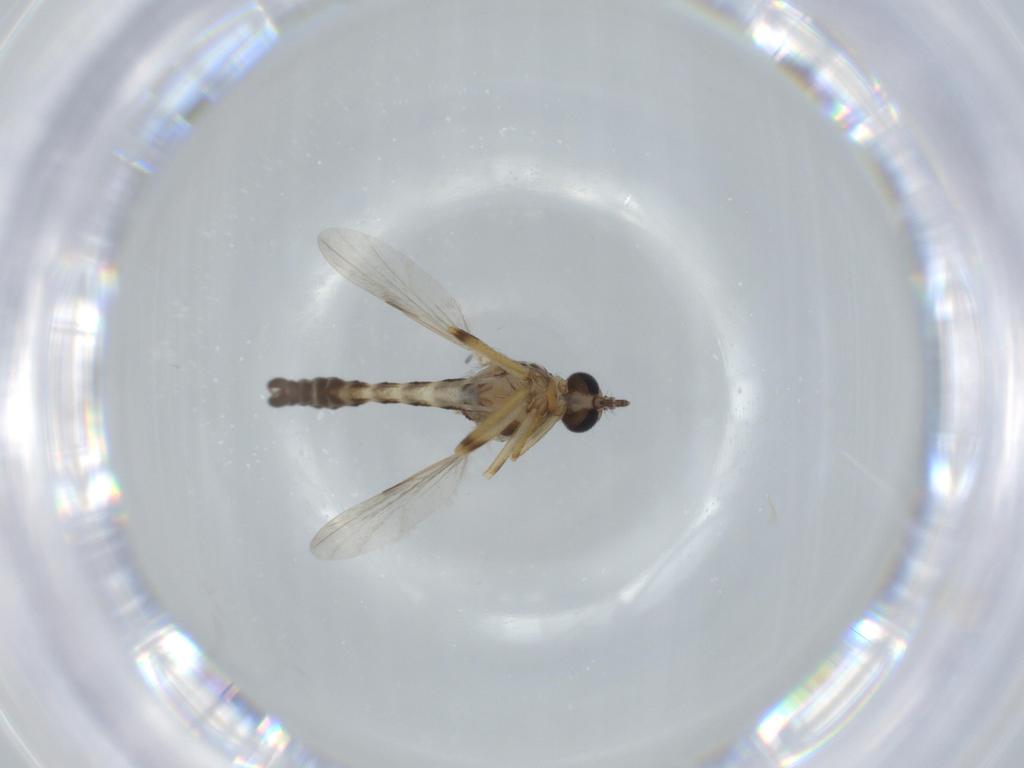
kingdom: Animalia
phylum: Arthropoda
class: Insecta
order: Diptera
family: Ceratopogonidae
